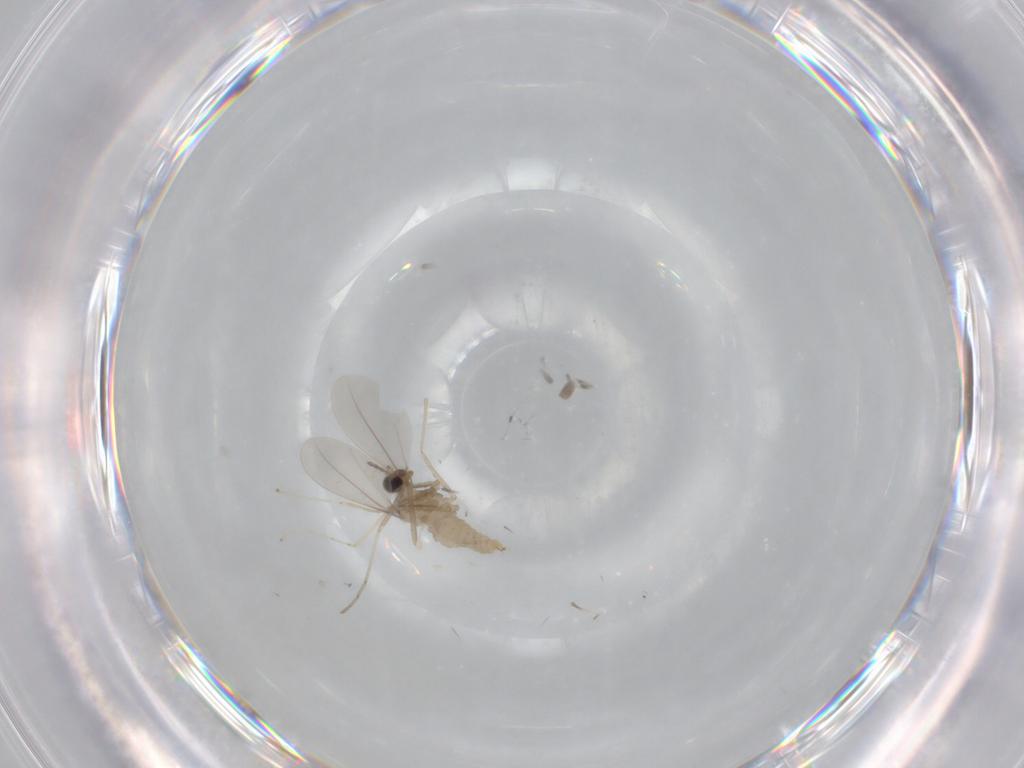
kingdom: Animalia
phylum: Arthropoda
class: Insecta
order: Diptera
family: Cecidomyiidae
